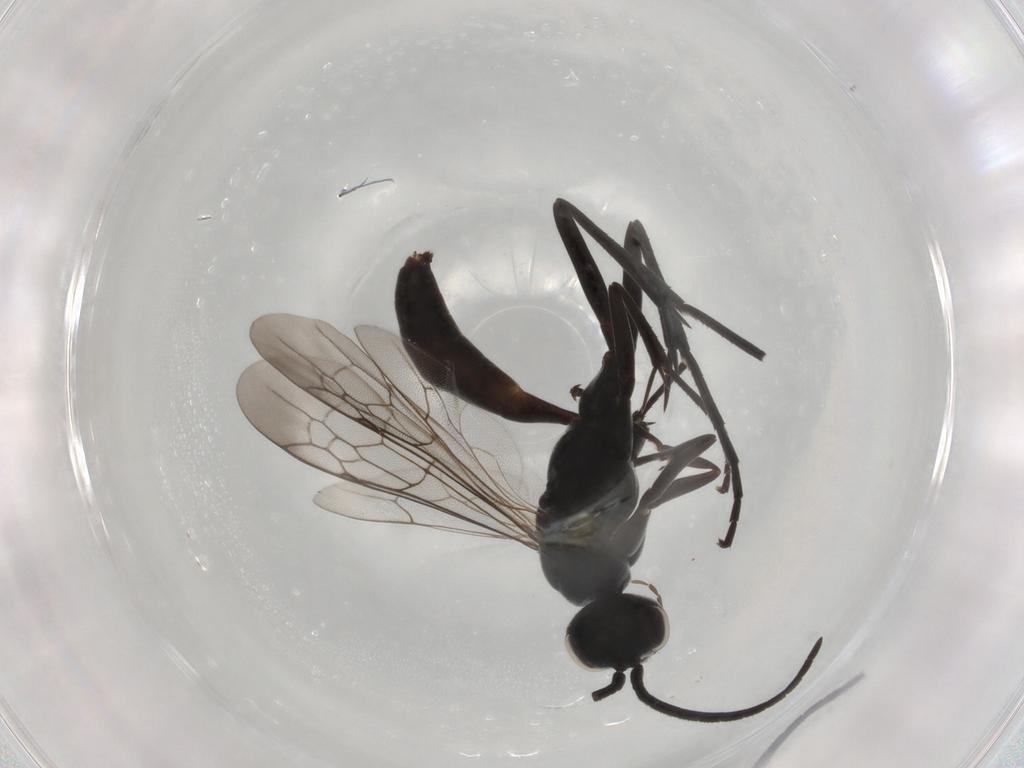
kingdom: Animalia
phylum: Arthropoda
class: Insecta
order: Hymenoptera
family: Pompilidae
